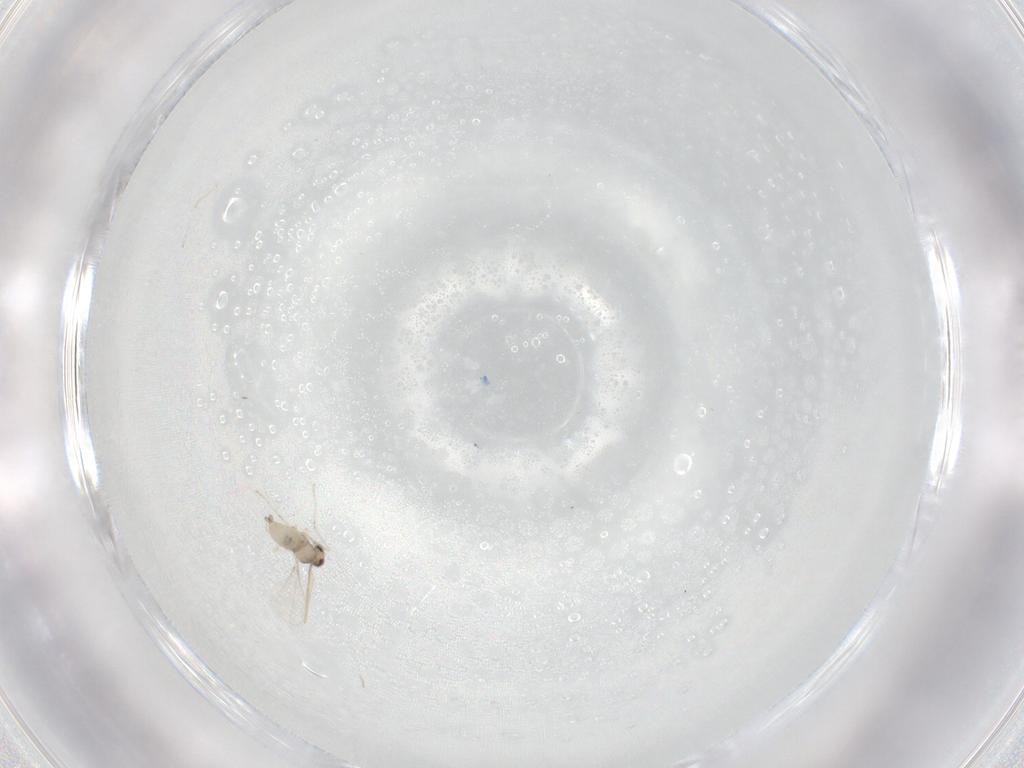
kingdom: Animalia
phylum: Arthropoda
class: Insecta
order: Diptera
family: Cecidomyiidae
